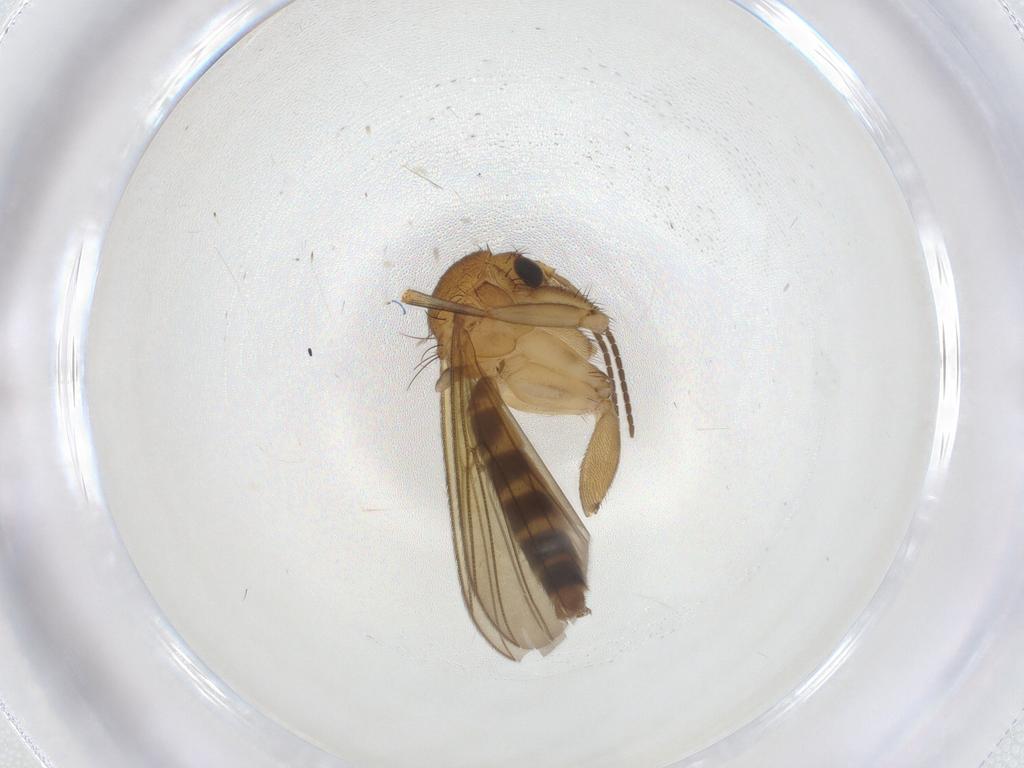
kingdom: Animalia
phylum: Arthropoda
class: Insecta
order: Diptera
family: Mycetophilidae
